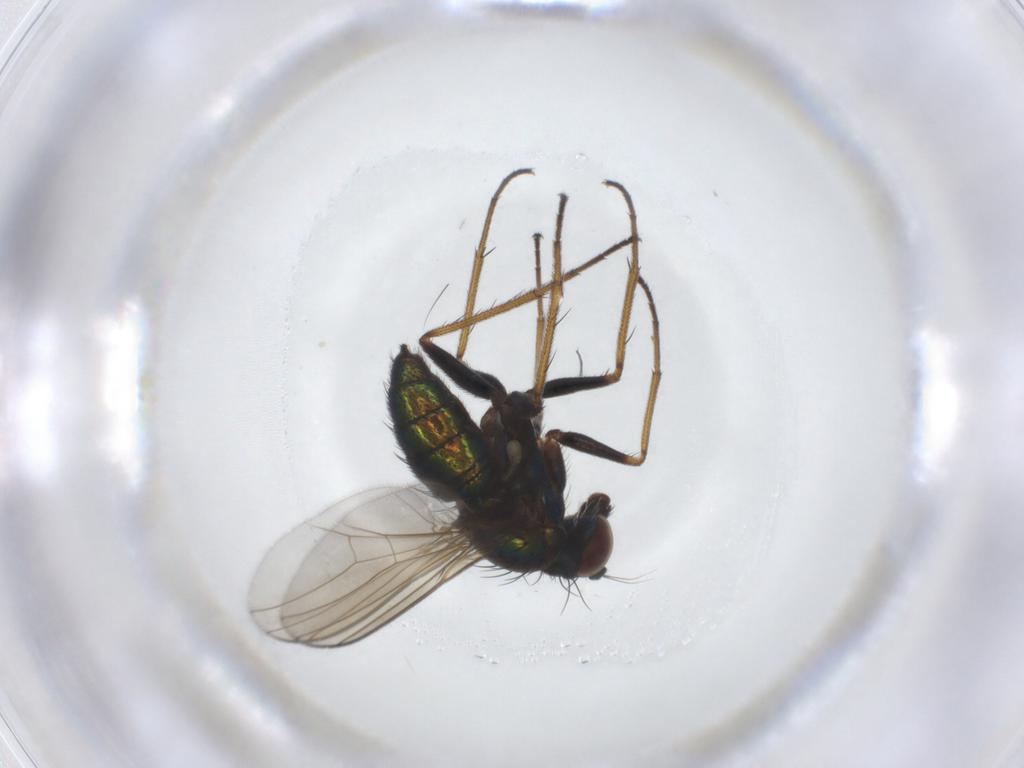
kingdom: Animalia
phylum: Arthropoda
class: Insecta
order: Diptera
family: Dolichopodidae
